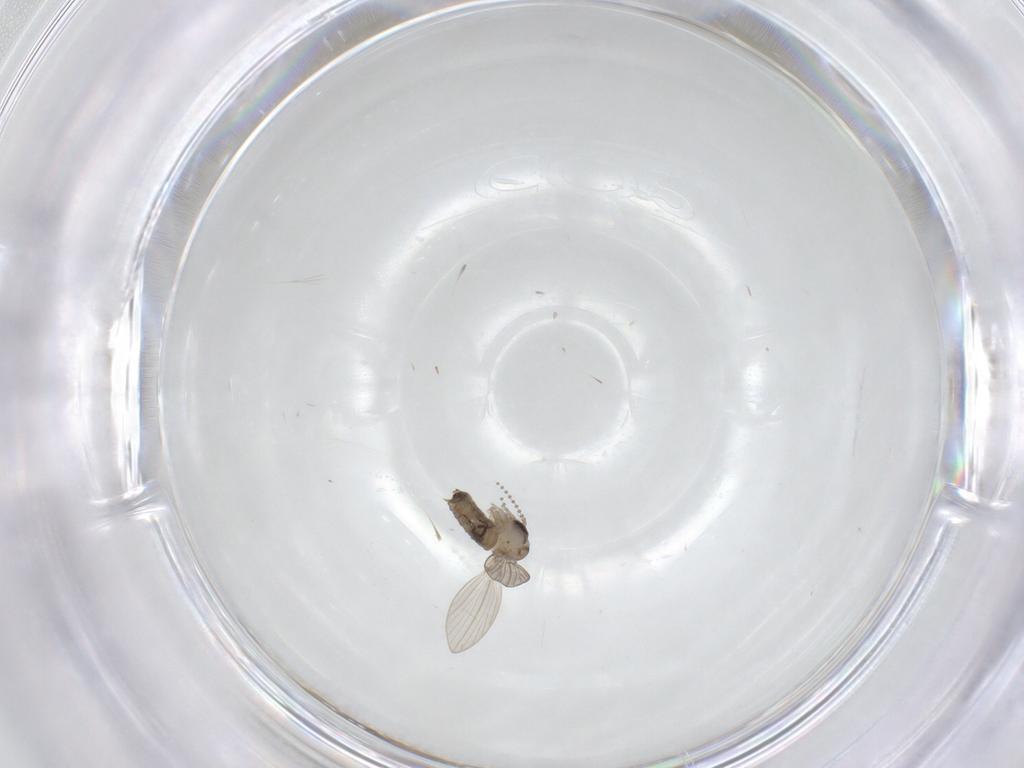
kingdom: Animalia
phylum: Arthropoda
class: Insecta
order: Diptera
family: Psychodidae
